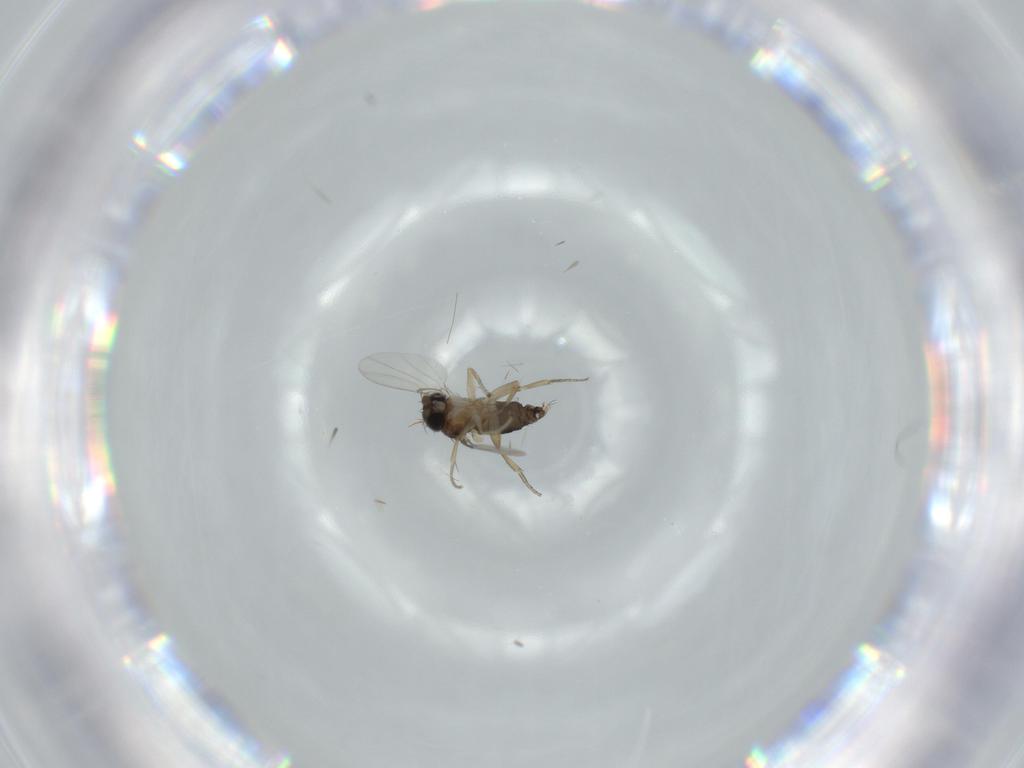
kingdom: Animalia
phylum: Arthropoda
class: Insecta
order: Diptera
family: Phoridae
